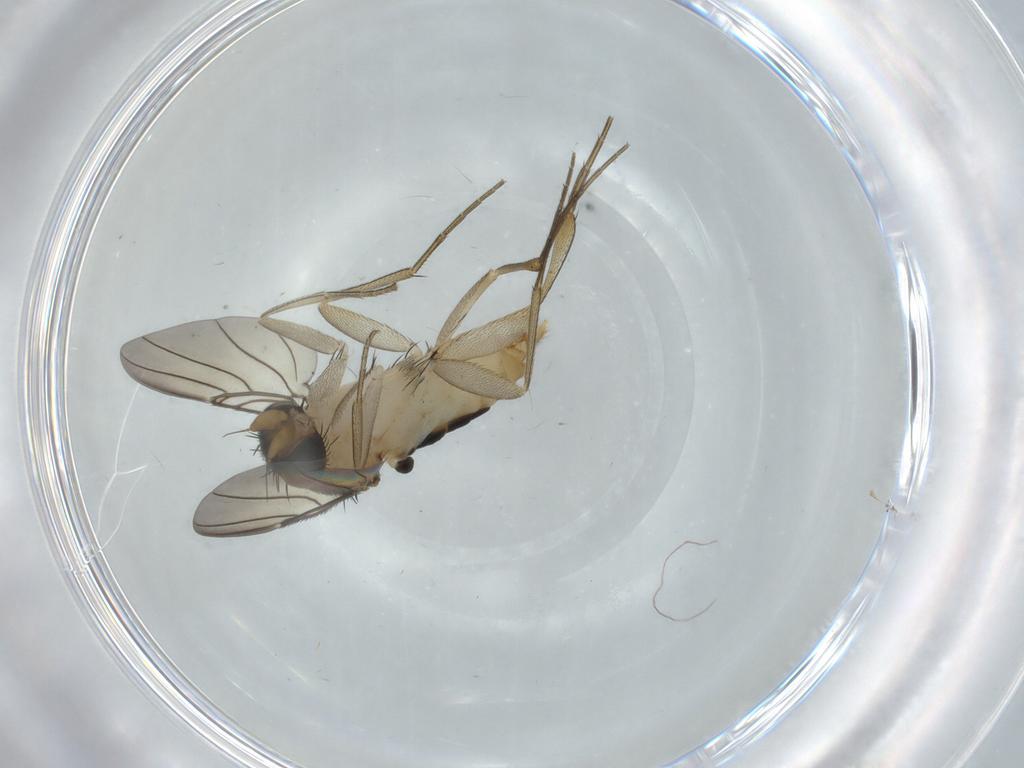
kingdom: Animalia
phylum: Arthropoda
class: Insecta
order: Diptera
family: Phoridae
